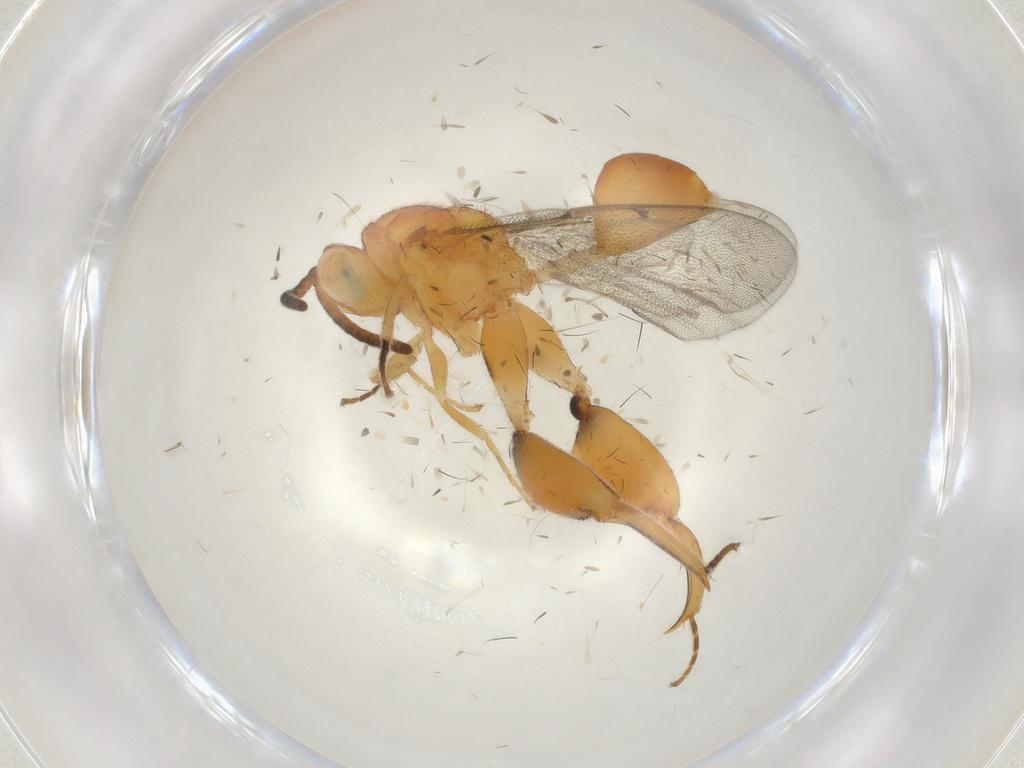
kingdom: Animalia
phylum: Arthropoda
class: Insecta
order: Hymenoptera
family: Chalcididae
